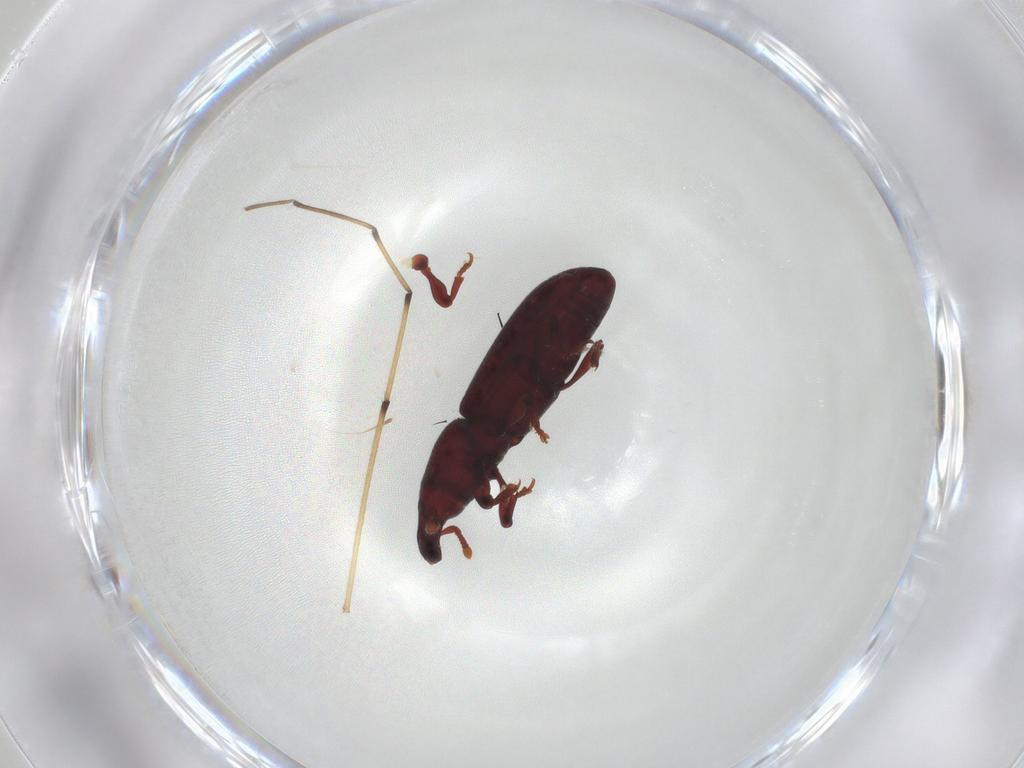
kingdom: Animalia
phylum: Arthropoda
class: Insecta
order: Coleoptera
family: Curculionidae
